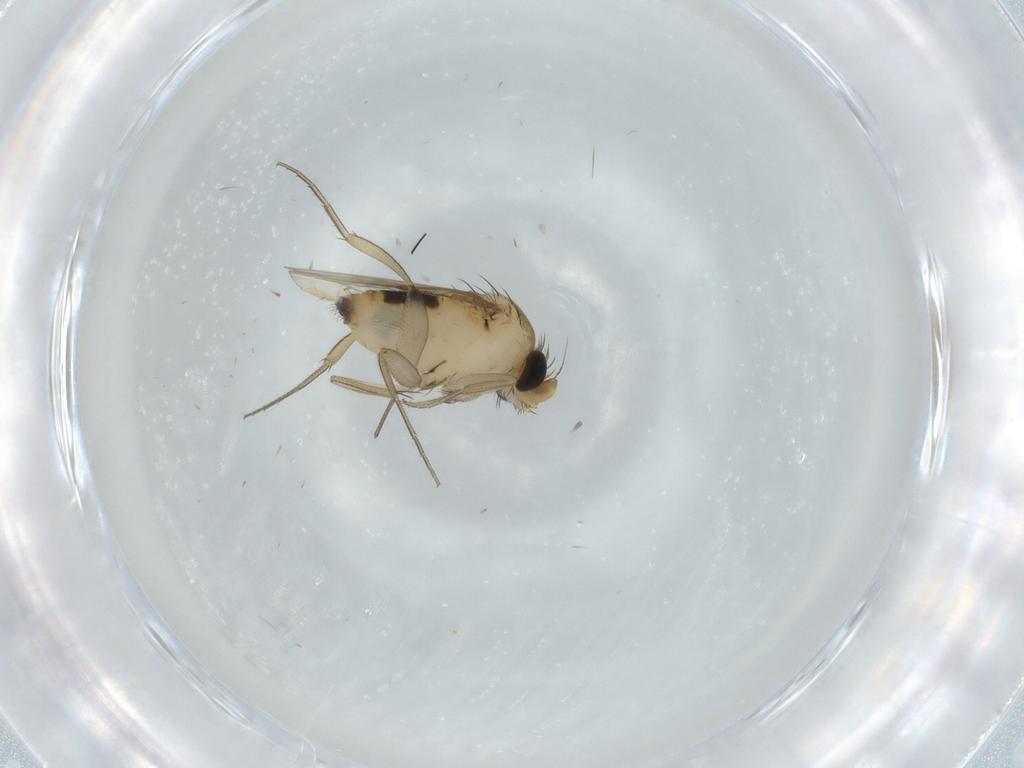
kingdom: Animalia
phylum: Arthropoda
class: Insecta
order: Diptera
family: Phoridae
